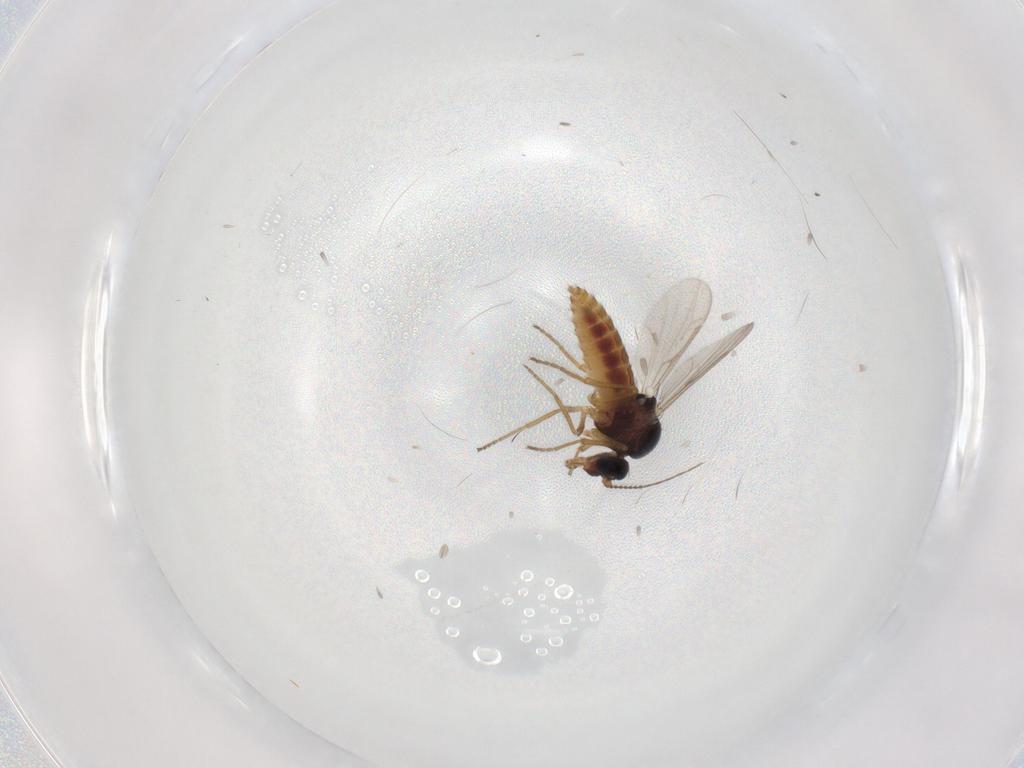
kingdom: Animalia
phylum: Arthropoda
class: Insecta
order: Diptera
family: Ceratopogonidae
